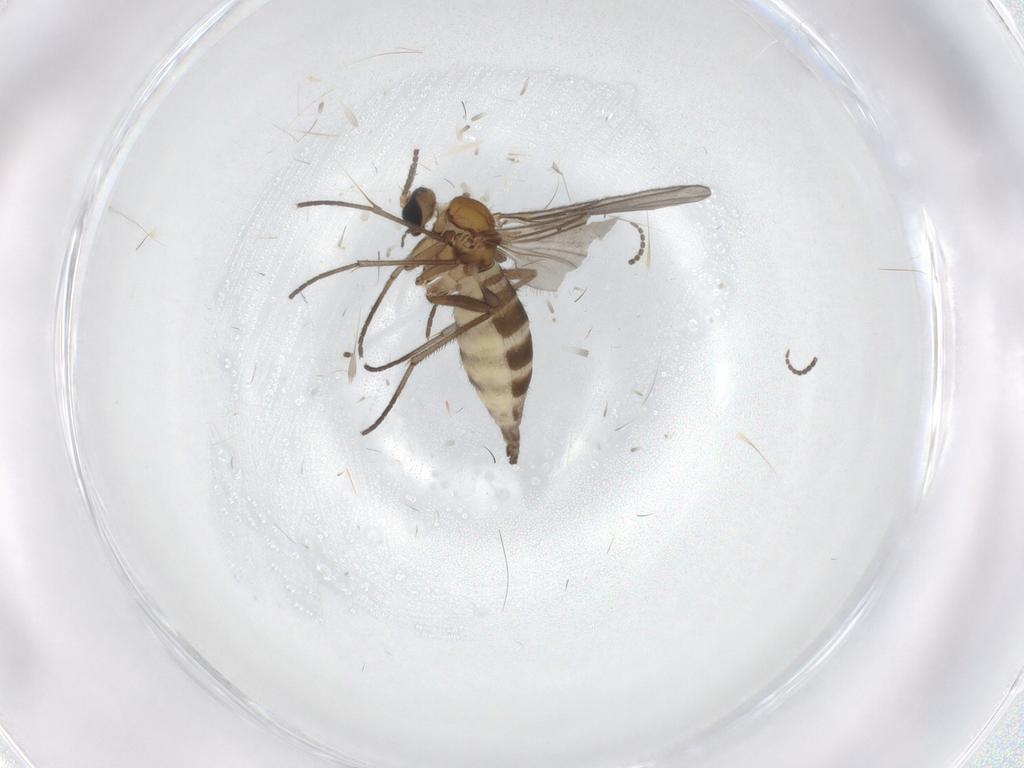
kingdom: Animalia
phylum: Arthropoda
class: Insecta
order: Diptera
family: Sciaridae
